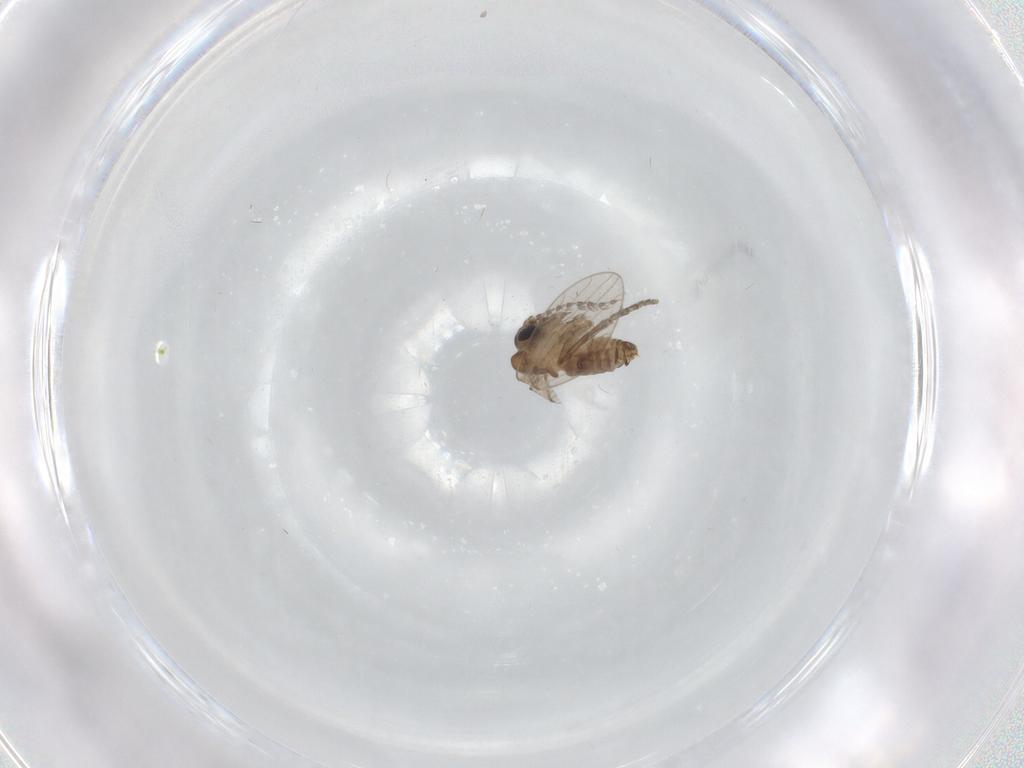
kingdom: Animalia
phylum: Arthropoda
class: Insecta
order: Diptera
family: Psychodidae
